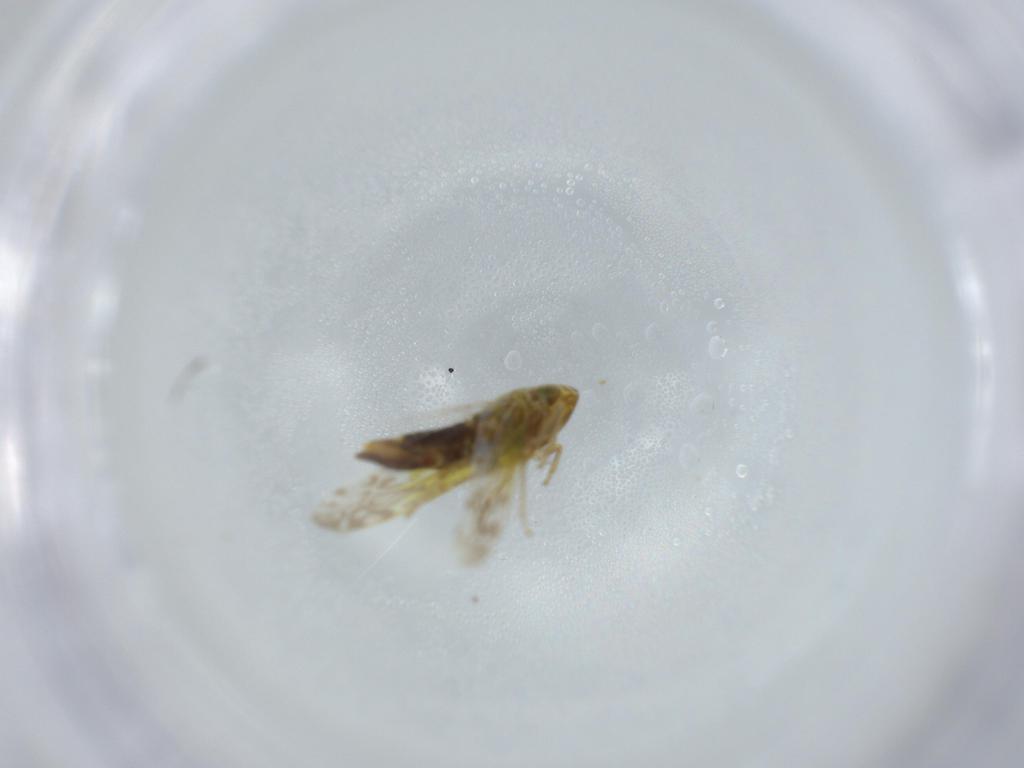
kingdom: Animalia
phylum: Arthropoda
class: Insecta
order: Hemiptera
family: Cicadellidae
